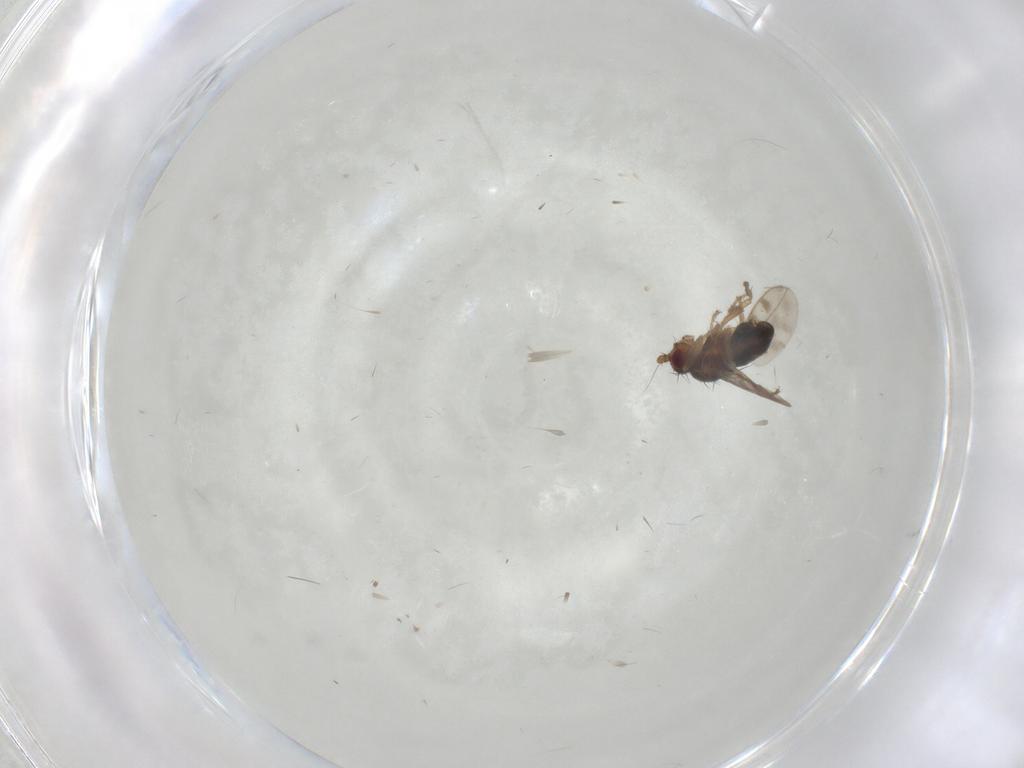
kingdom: Animalia
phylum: Arthropoda
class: Insecta
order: Diptera
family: Sphaeroceridae
